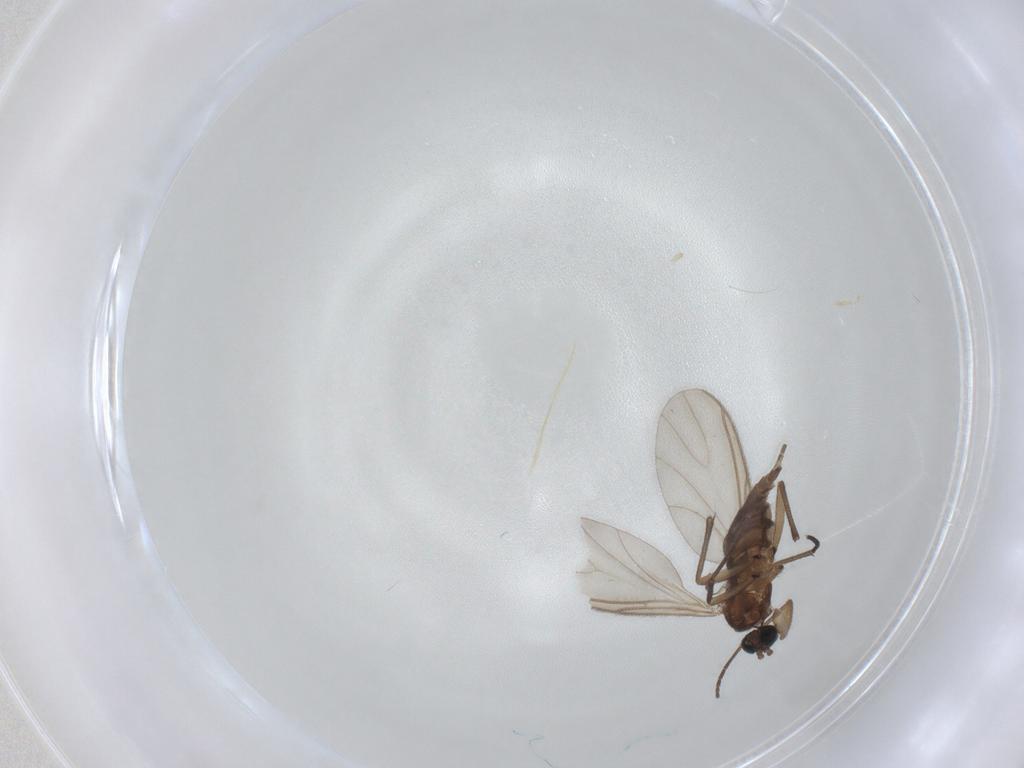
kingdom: Animalia
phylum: Arthropoda
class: Insecta
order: Diptera
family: Sciaridae
